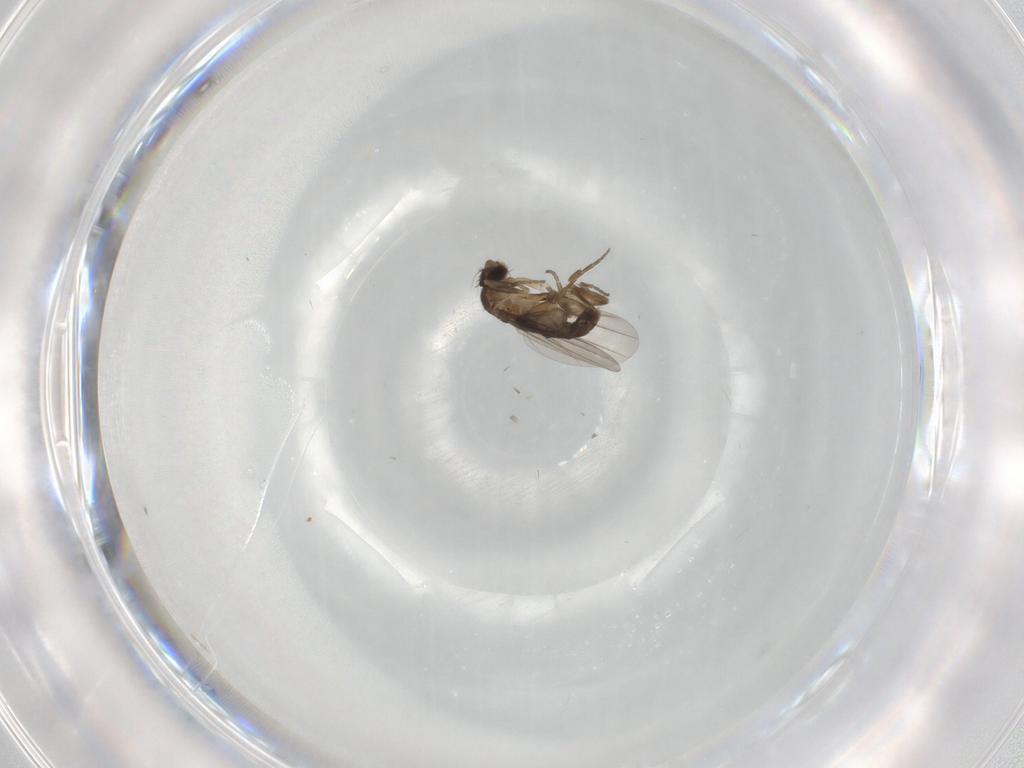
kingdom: Animalia
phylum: Arthropoda
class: Insecta
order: Diptera
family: Phoridae
